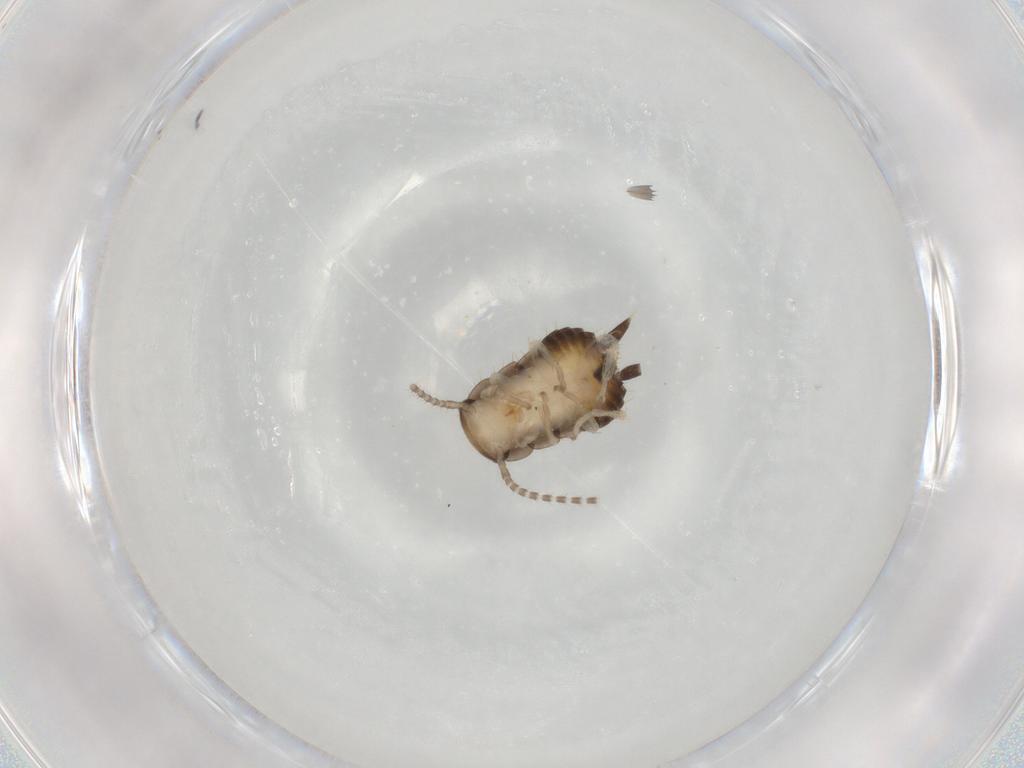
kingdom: Animalia
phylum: Arthropoda
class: Insecta
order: Blattodea
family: Ectobiidae
